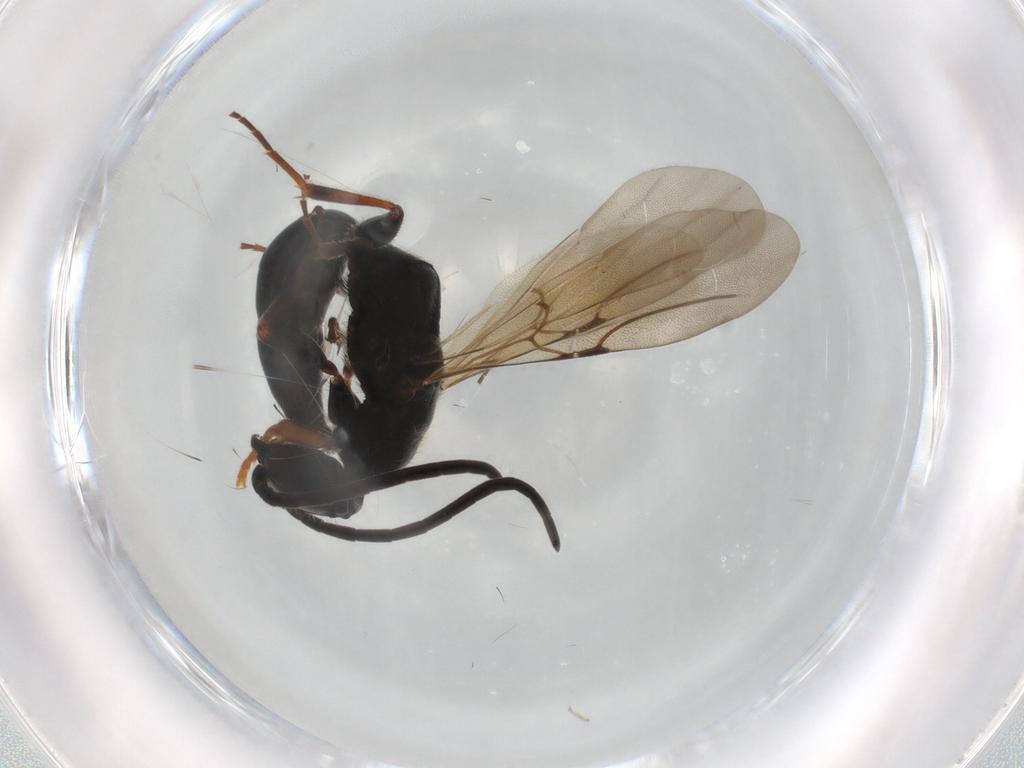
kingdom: Animalia
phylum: Arthropoda
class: Insecta
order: Hymenoptera
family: Bethylidae
